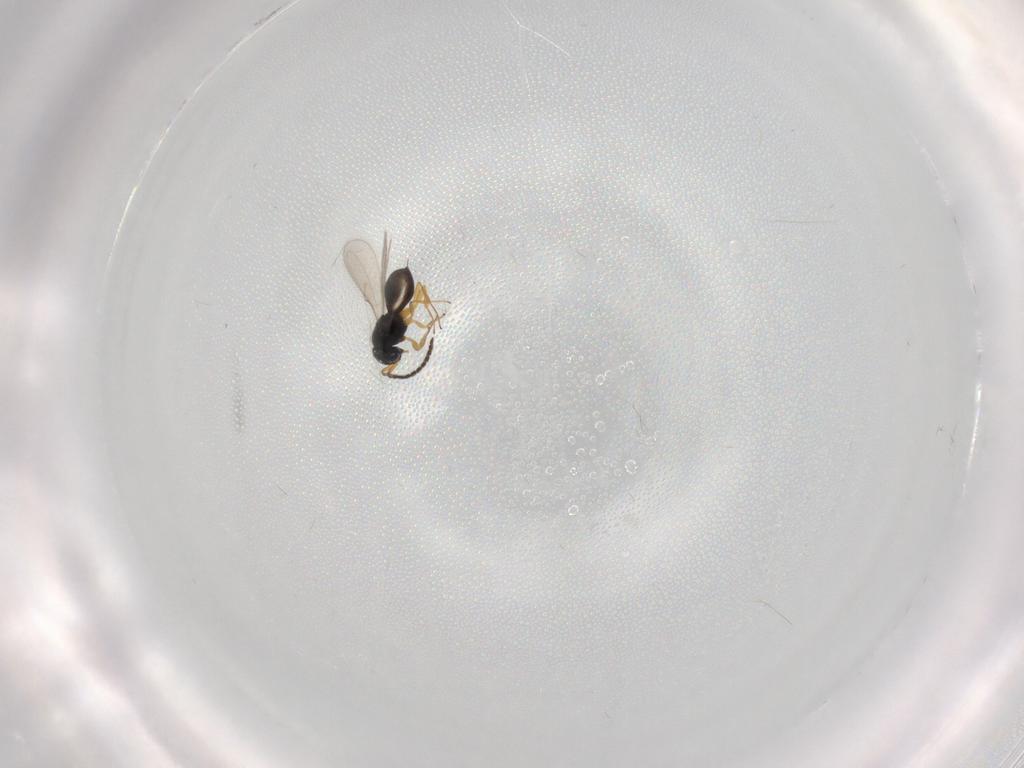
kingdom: Animalia
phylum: Arthropoda
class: Insecta
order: Hymenoptera
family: Scelionidae
